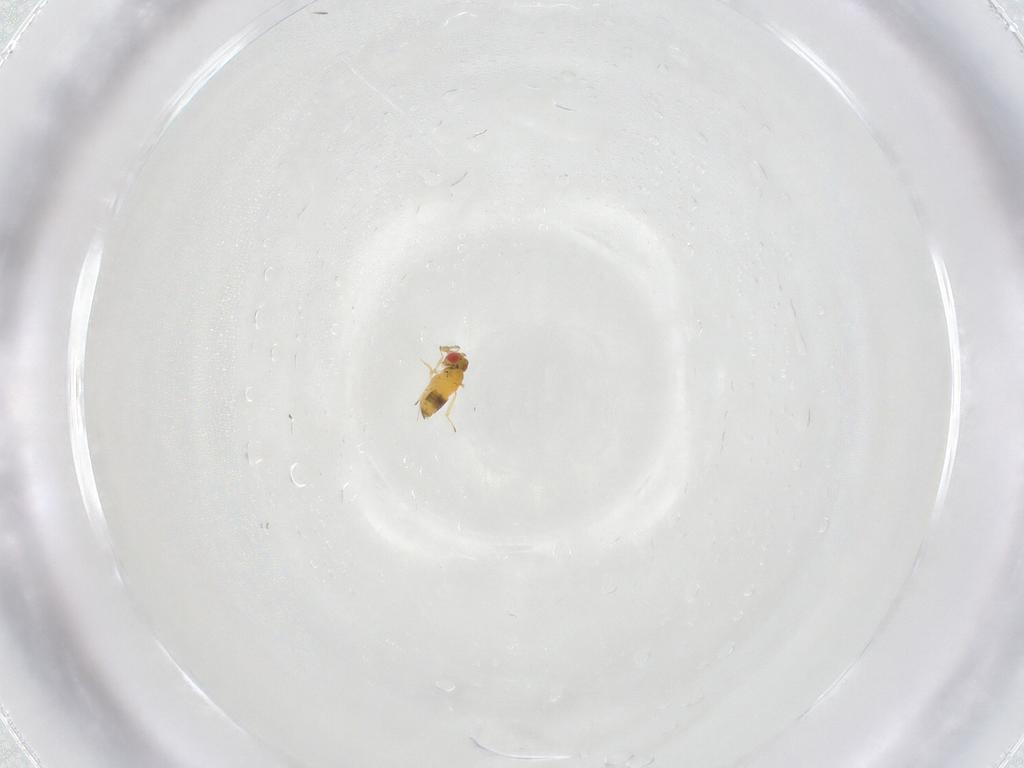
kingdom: Animalia
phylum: Arthropoda
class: Insecta
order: Hymenoptera
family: Trichogrammatidae
